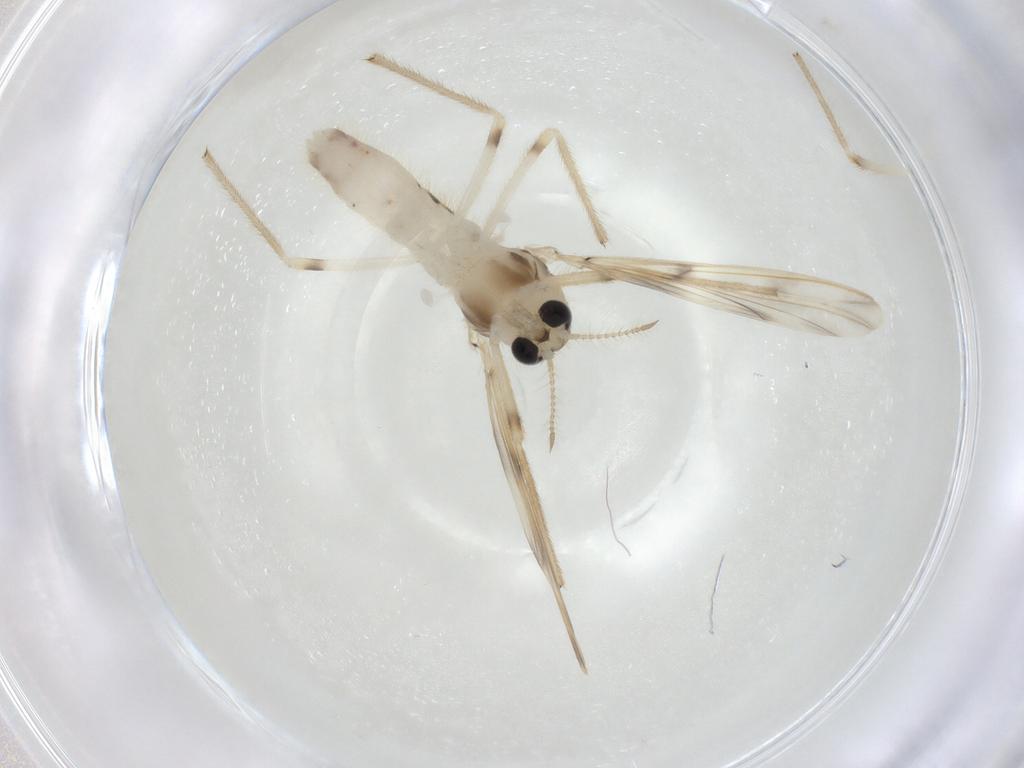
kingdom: Animalia
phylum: Arthropoda
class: Insecta
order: Diptera
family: Chironomidae
